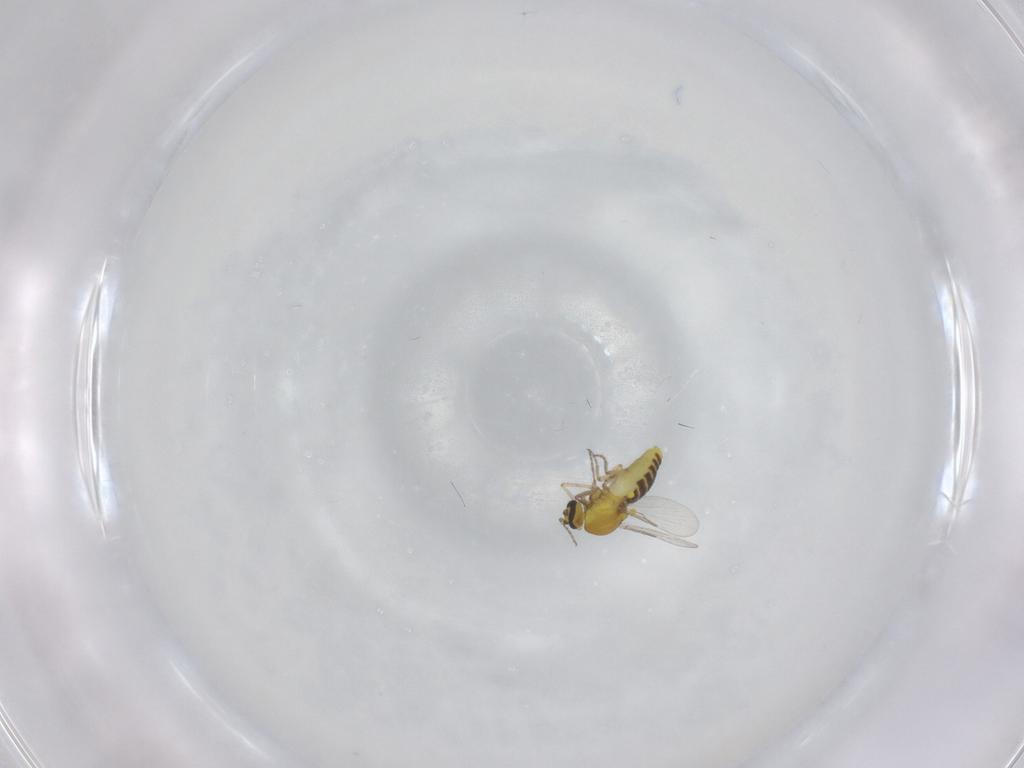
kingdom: Animalia
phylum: Arthropoda
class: Insecta
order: Diptera
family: Ceratopogonidae
